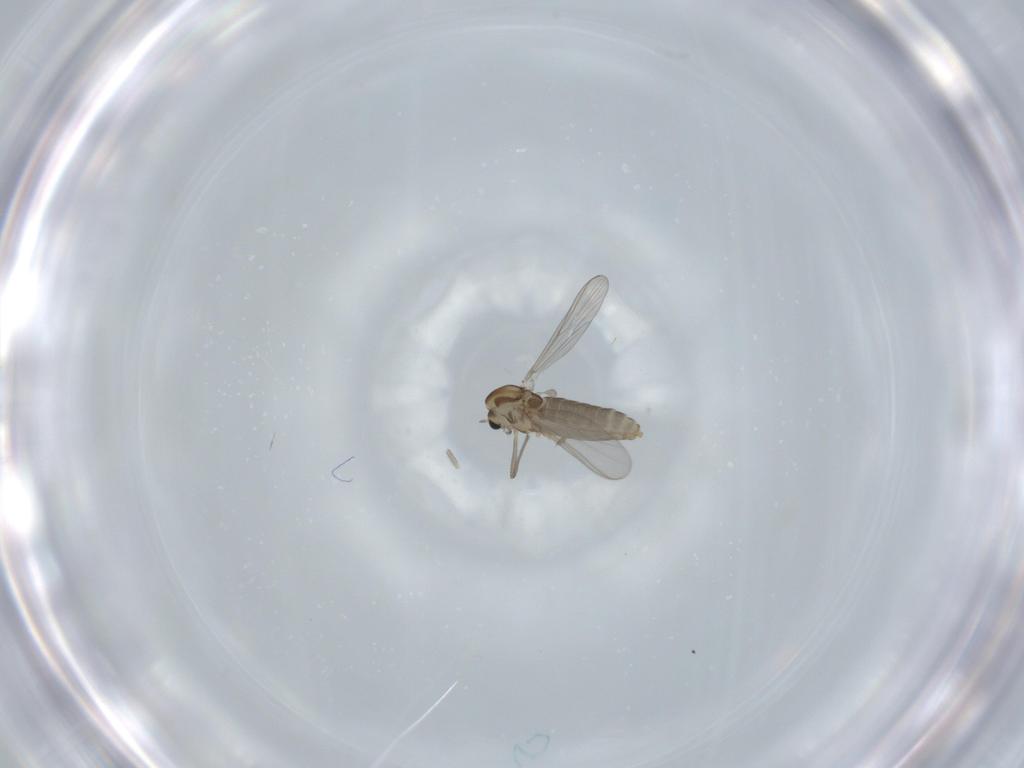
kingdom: Animalia
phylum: Arthropoda
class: Insecta
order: Diptera
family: Chironomidae
